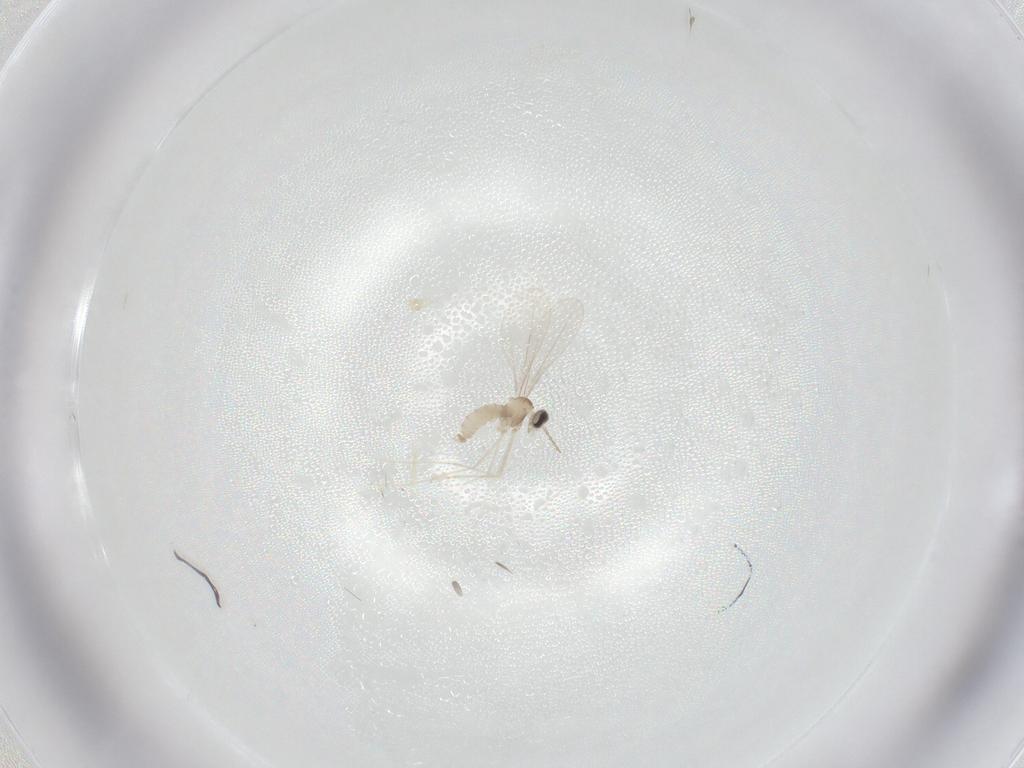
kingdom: Animalia
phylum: Arthropoda
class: Insecta
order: Diptera
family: Cecidomyiidae
